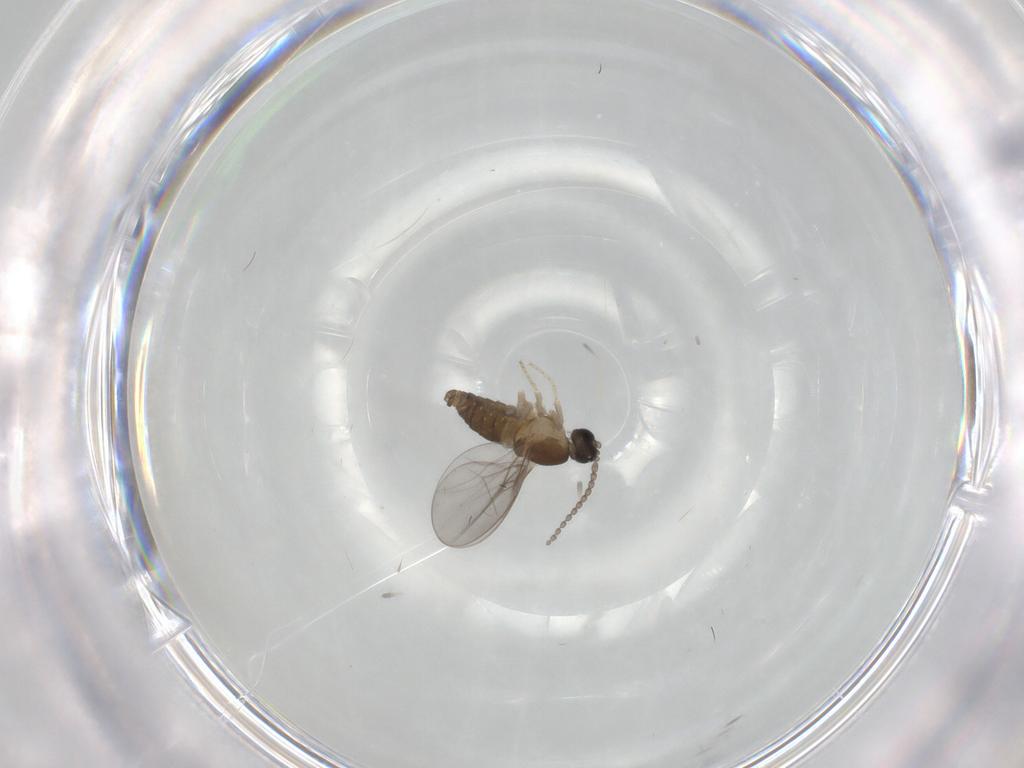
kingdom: Animalia
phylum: Arthropoda
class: Insecta
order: Diptera
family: Cecidomyiidae
